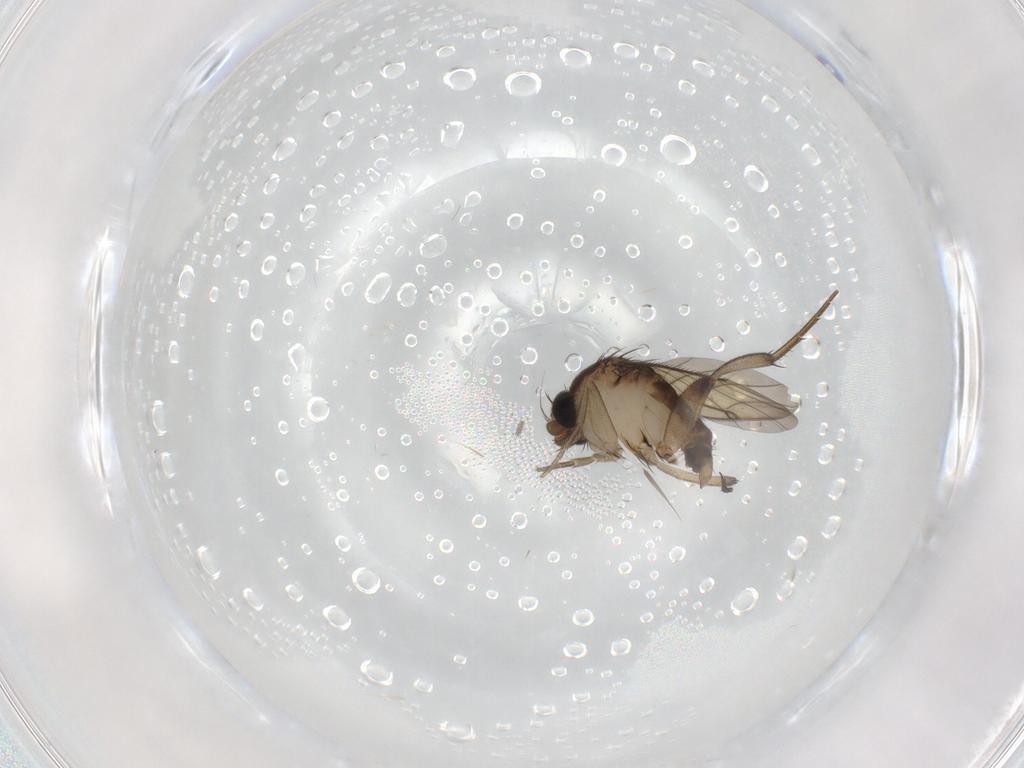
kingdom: Animalia
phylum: Arthropoda
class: Insecta
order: Diptera
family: Phoridae
